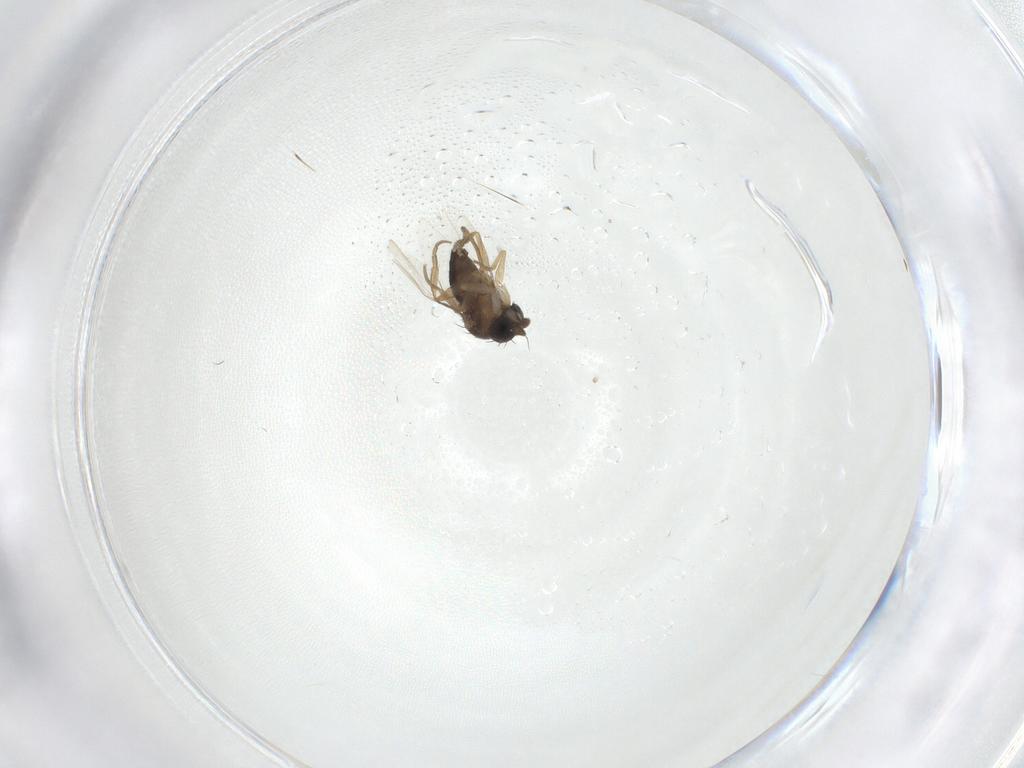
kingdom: Animalia
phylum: Arthropoda
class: Insecta
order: Diptera
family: Phoridae
